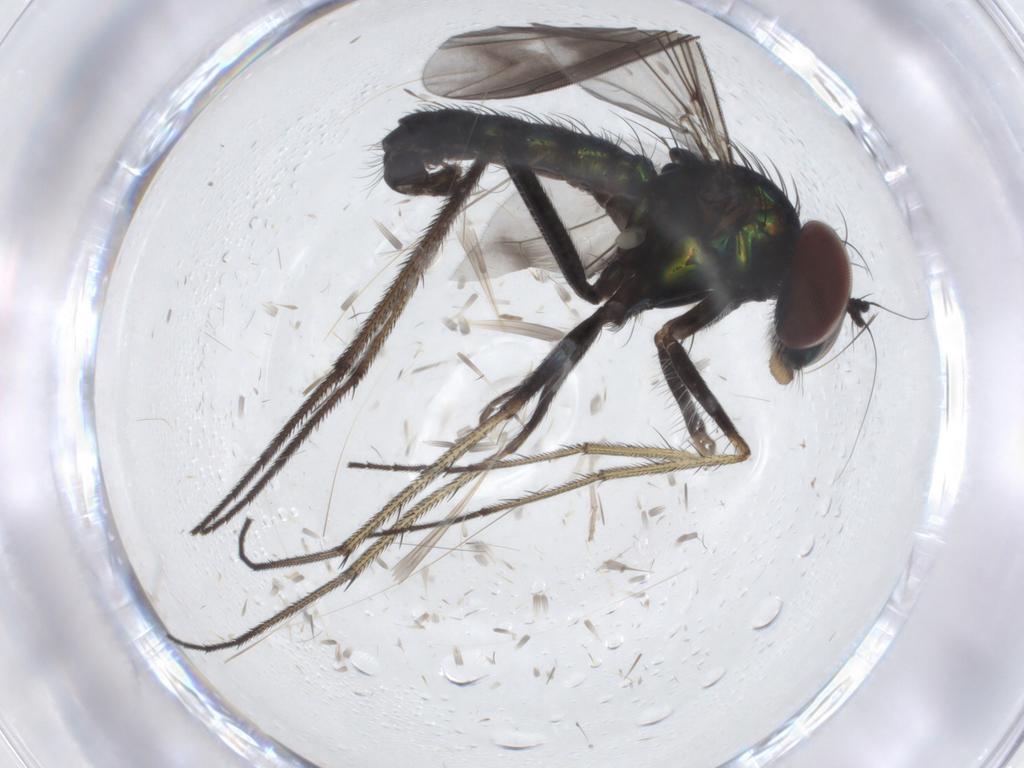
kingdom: Animalia
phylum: Arthropoda
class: Insecta
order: Diptera
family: Dolichopodidae
